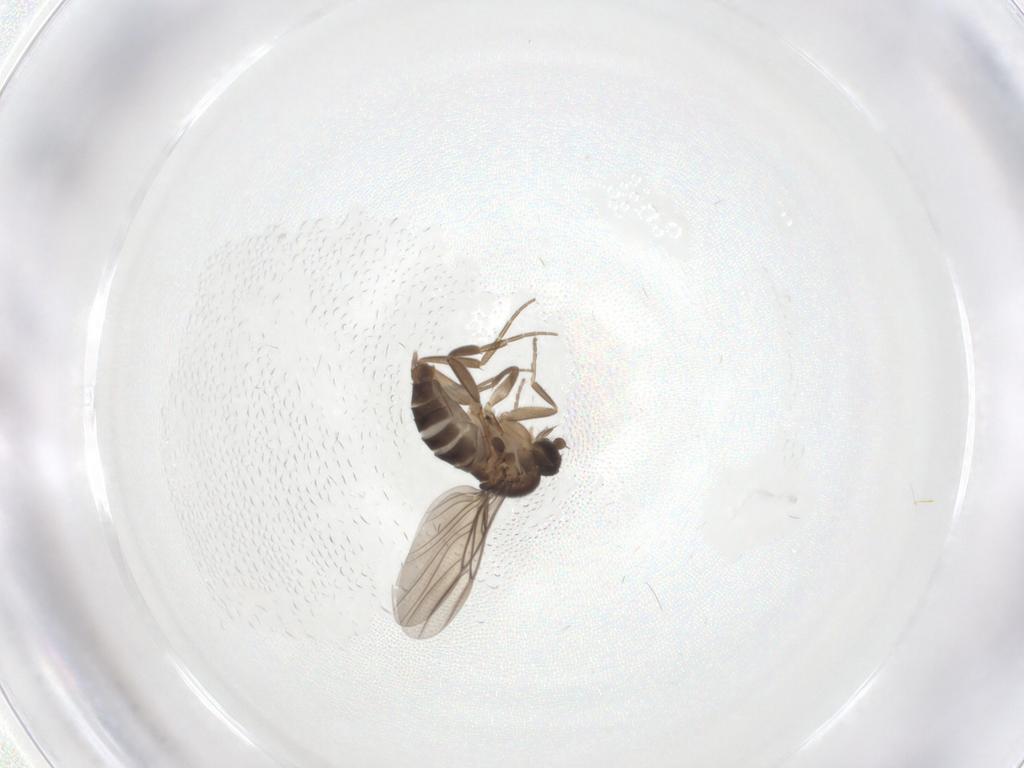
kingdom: Animalia
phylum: Arthropoda
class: Insecta
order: Diptera
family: Phoridae
